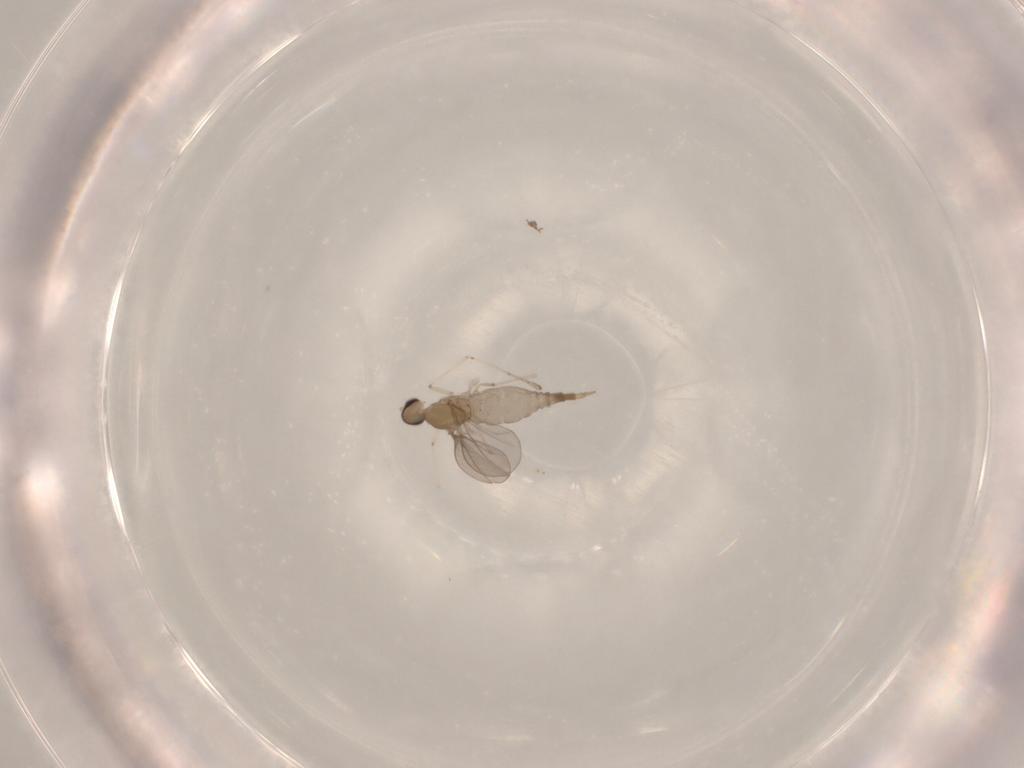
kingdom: Animalia
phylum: Arthropoda
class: Insecta
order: Diptera
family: Cecidomyiidae
